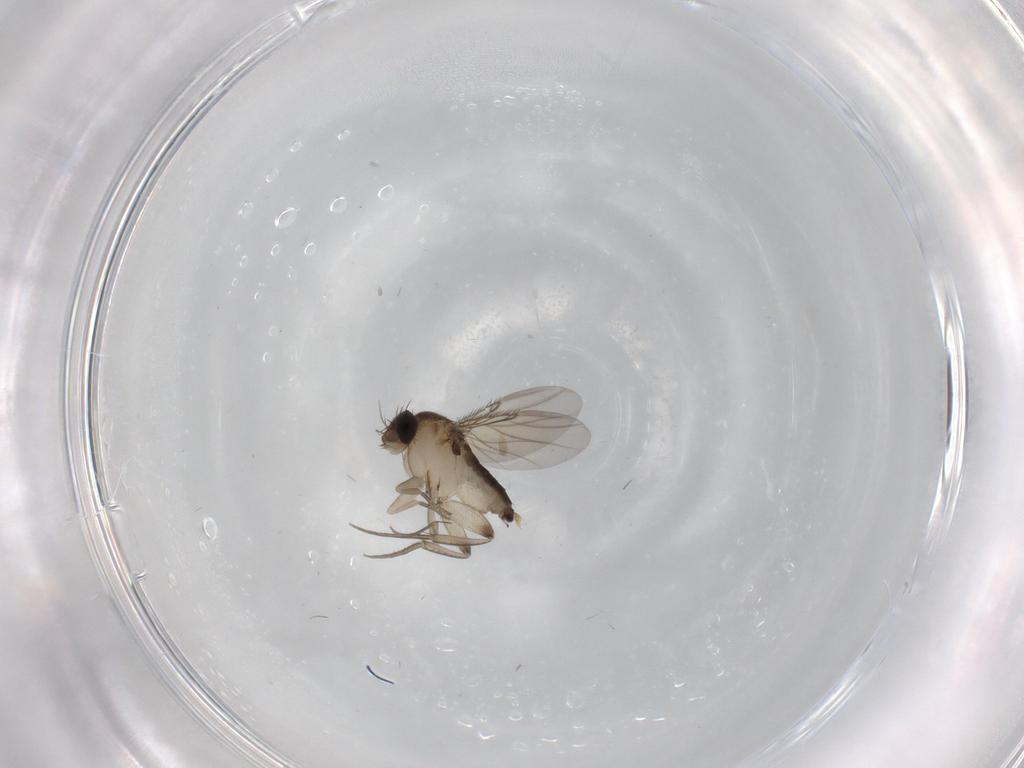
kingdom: Animalia
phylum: Arthropoda
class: Insecta
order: Diptera
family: Phoridae
